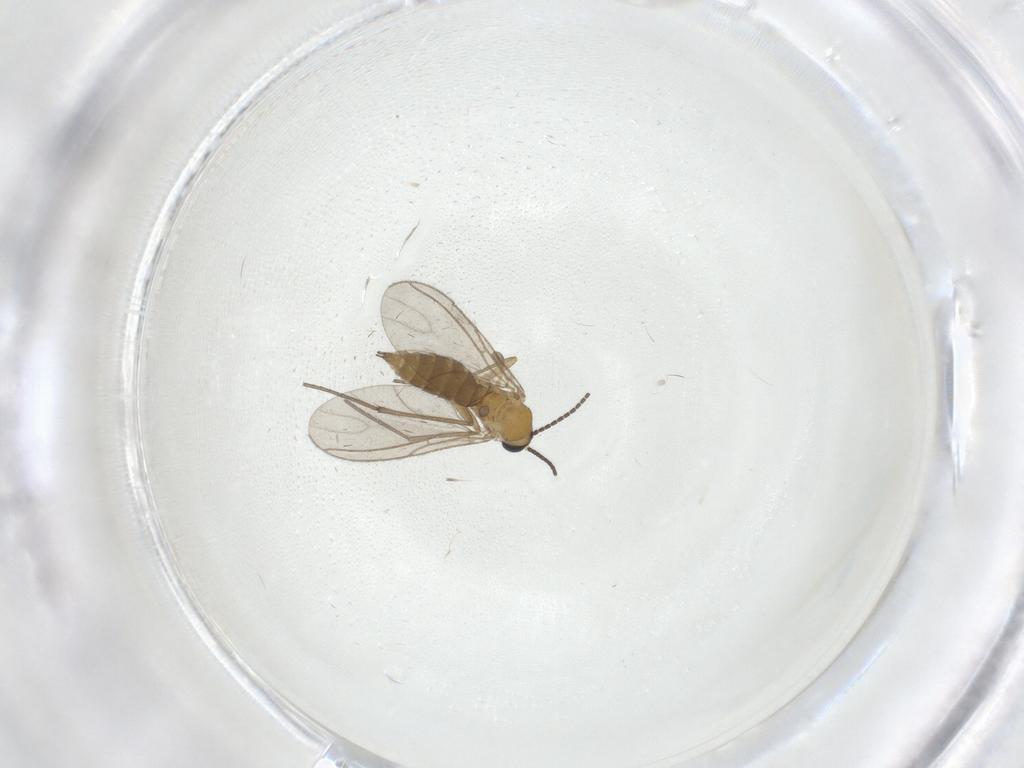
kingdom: Animalia
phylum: Arthropoda
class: Insecta
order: Diptera
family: Sciaridae
